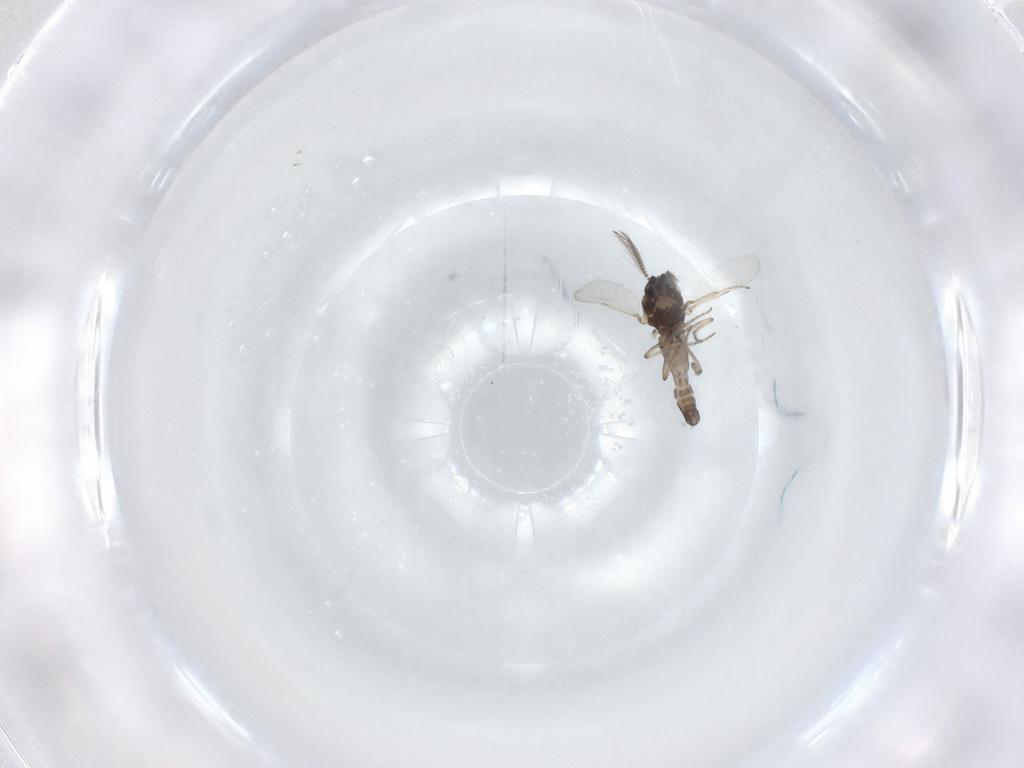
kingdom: Animalia
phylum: Arthropoda
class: Insecta
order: Diptera
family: Ceratopogonidae
